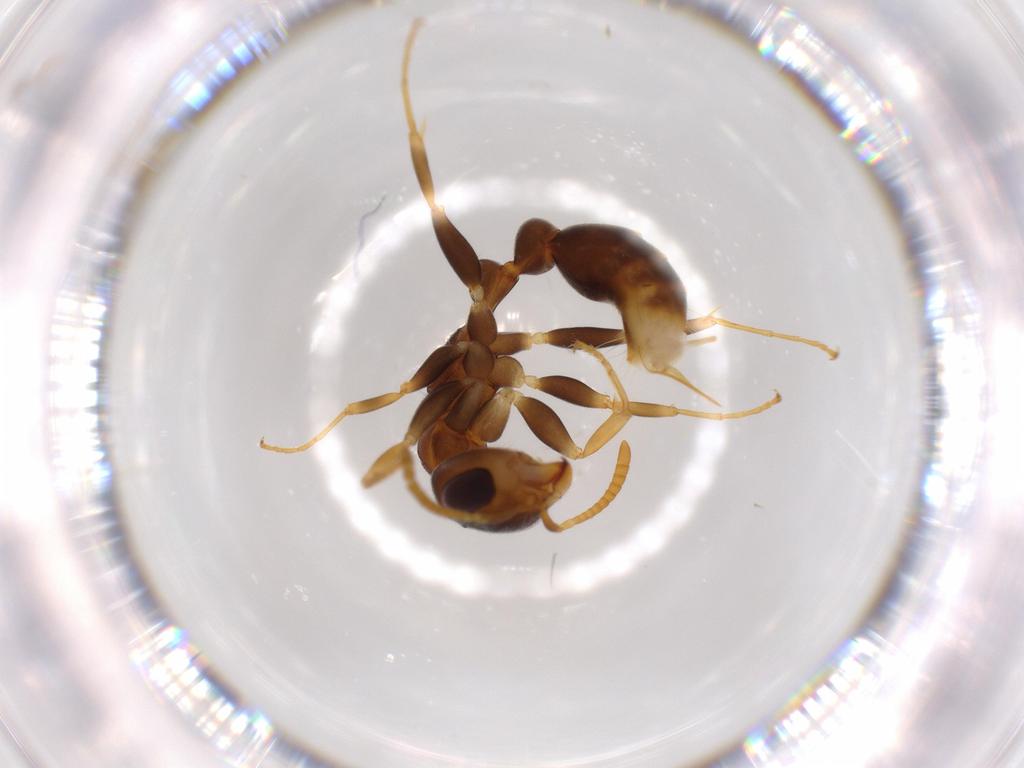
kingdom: Animalia
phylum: Arthropoda
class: Insecta
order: Hymenoptera
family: Formicidae
